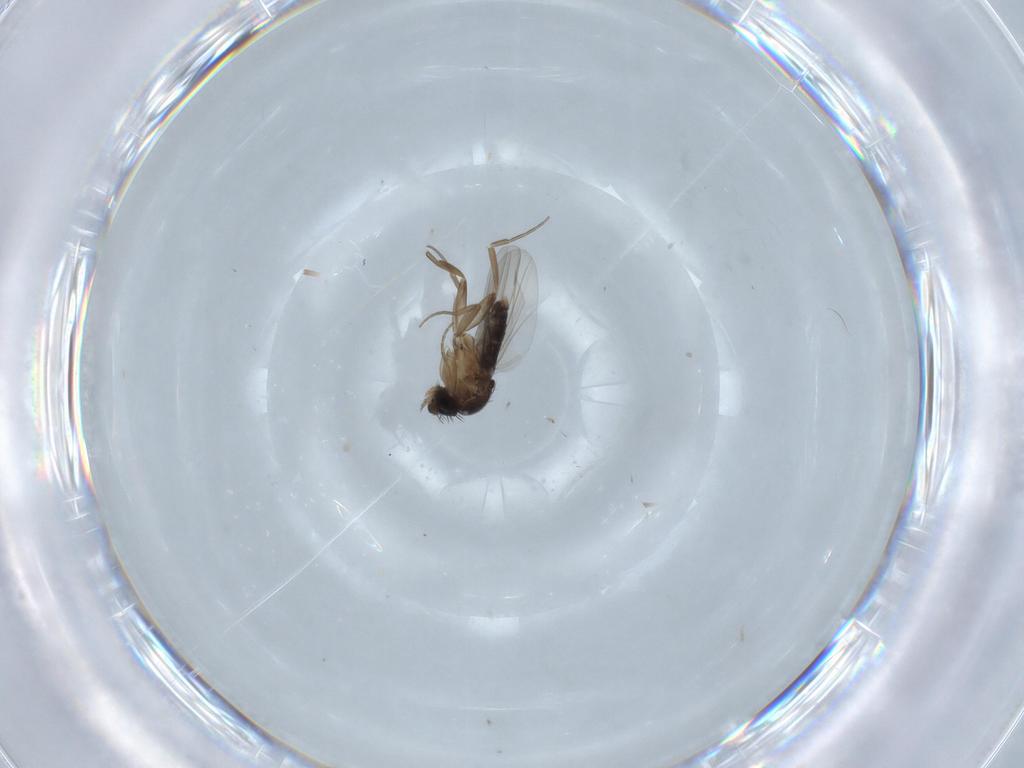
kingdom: Animalia
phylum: Arthropoda
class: Insecta
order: Diptera
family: Phoridae
